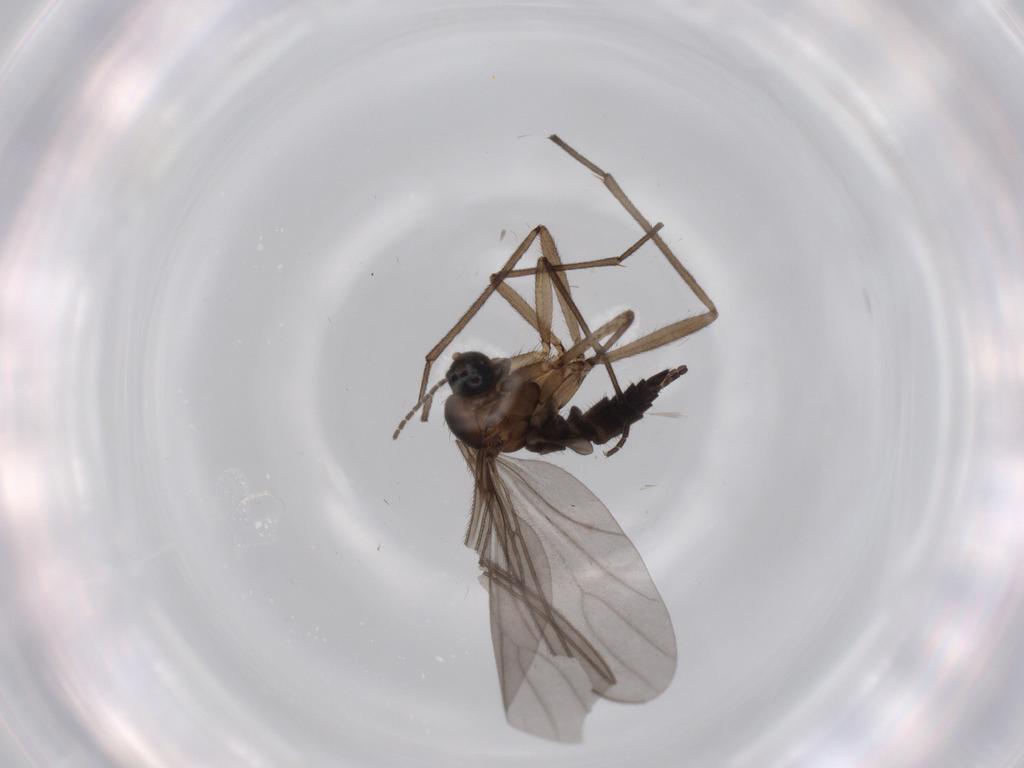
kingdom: Animalia
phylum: Arthropoda
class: Insecta
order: Diptera
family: Cecidomyiidae
